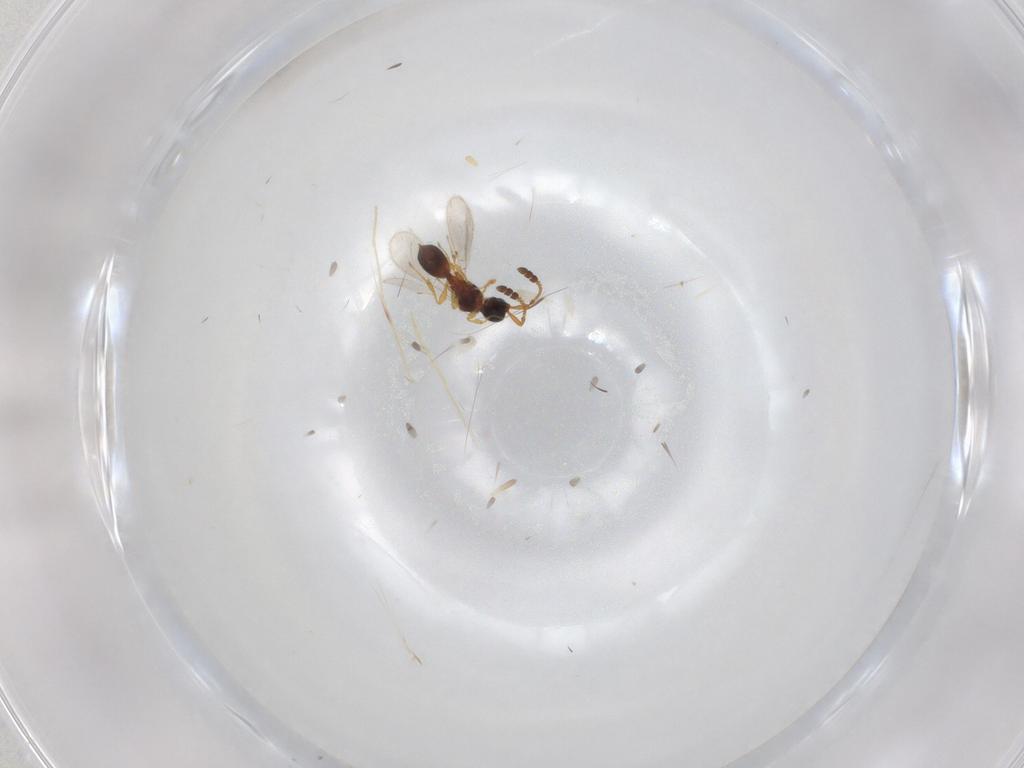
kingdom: Animalia
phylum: Arthropoda
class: Insecta
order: Hymenoptera
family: Diapriidae
